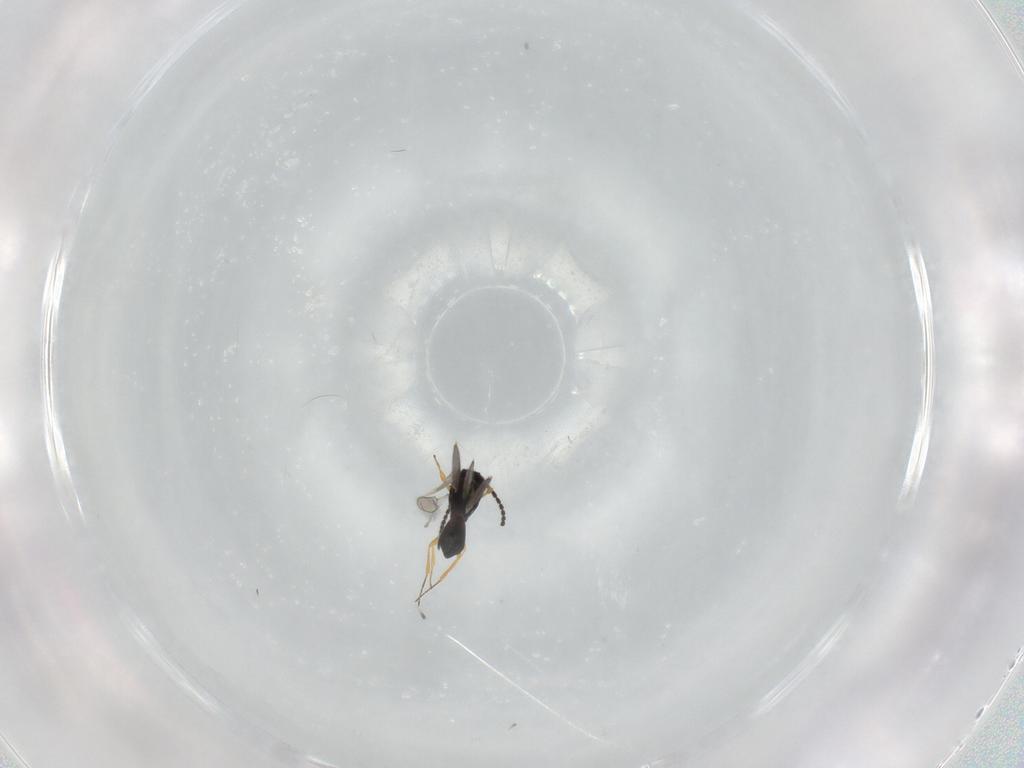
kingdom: Animalia
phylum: Arthropoda
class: Insecta
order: Hymenoptera
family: Scelionidae
